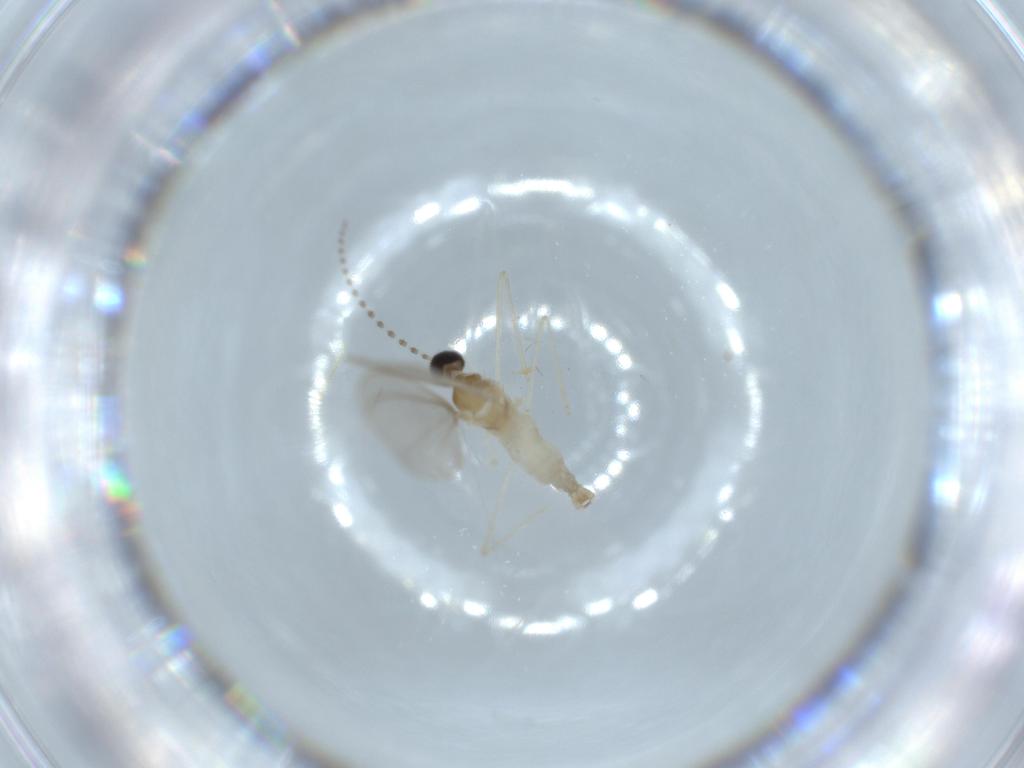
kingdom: Animalia
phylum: Arthropoda
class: Insecta
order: Diptera
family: Cecidomyiidae
